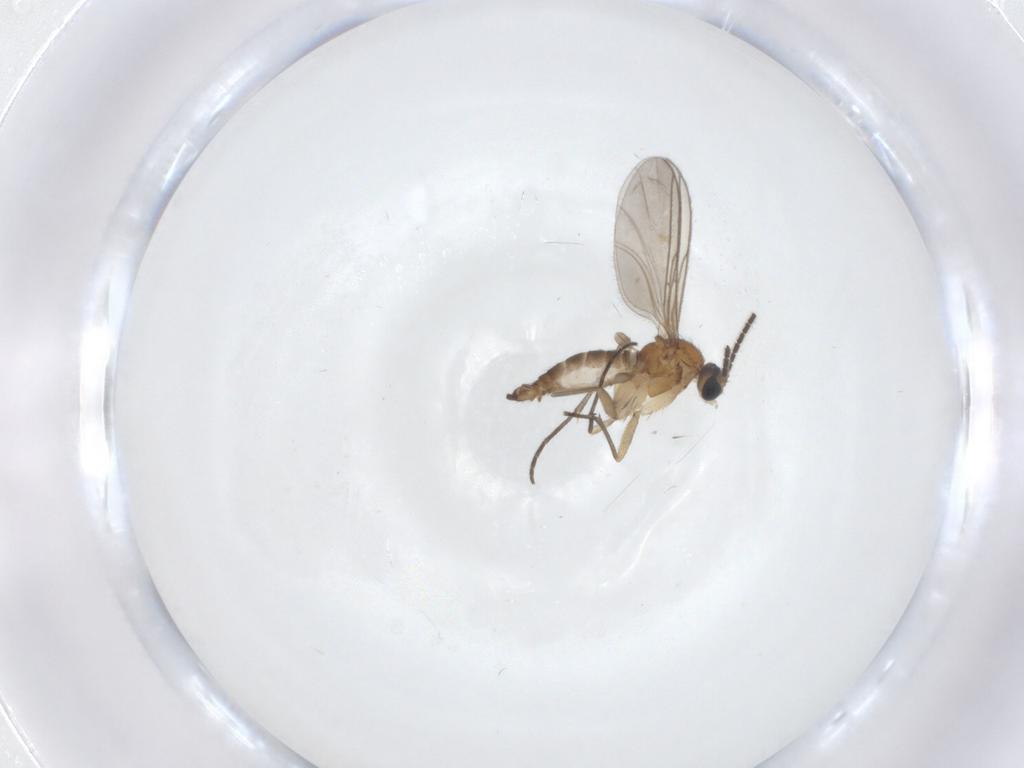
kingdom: Animalia
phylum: Arthropoda
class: Insecta
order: Diptera
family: Sciaridae
